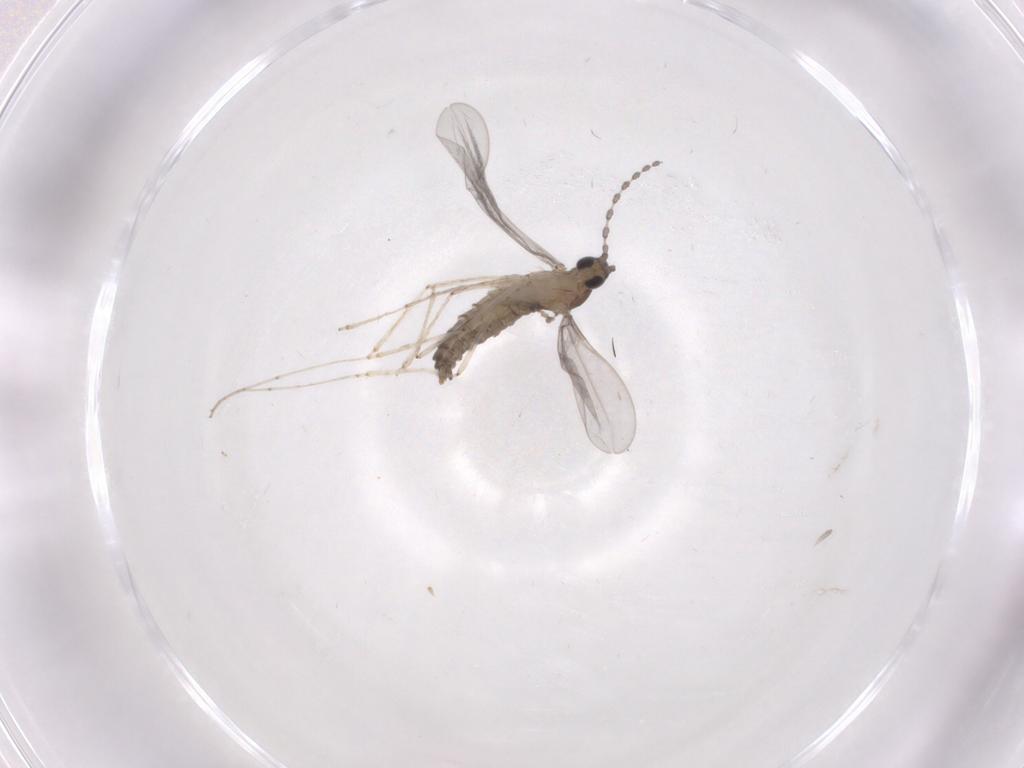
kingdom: Animalia
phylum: Arthropoda
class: Insecta
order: Diptera
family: Cecidomyiidae
